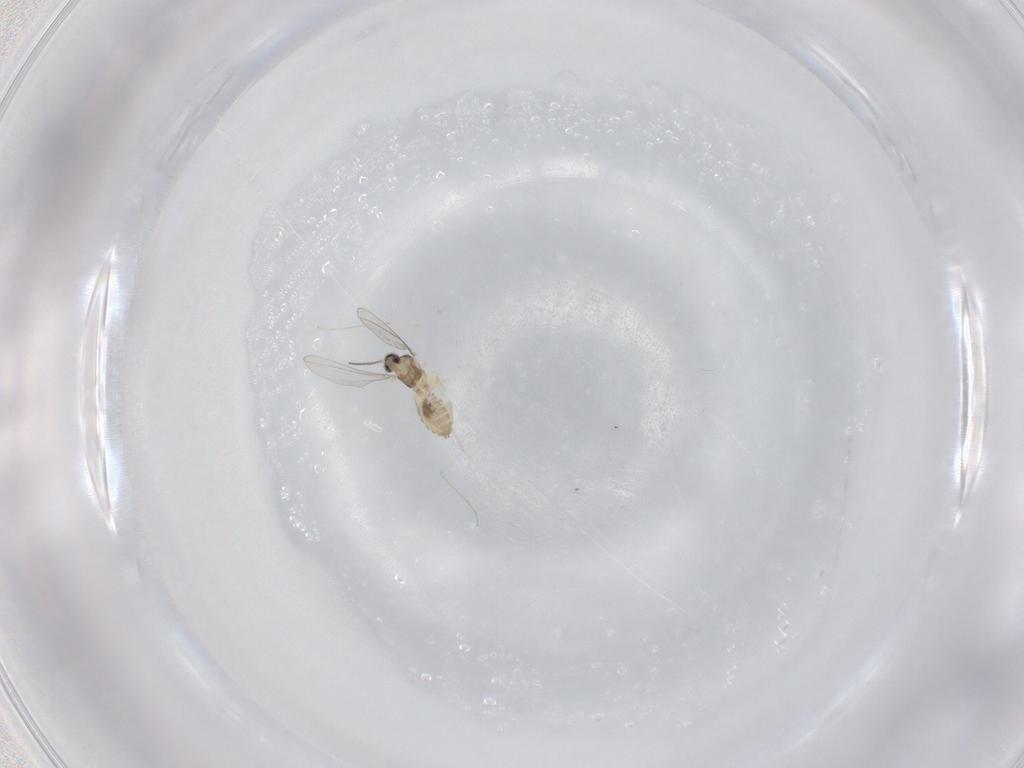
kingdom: Animalia
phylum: Arthropoda
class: Insecta
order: Diptera
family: Cecidomyiidae
